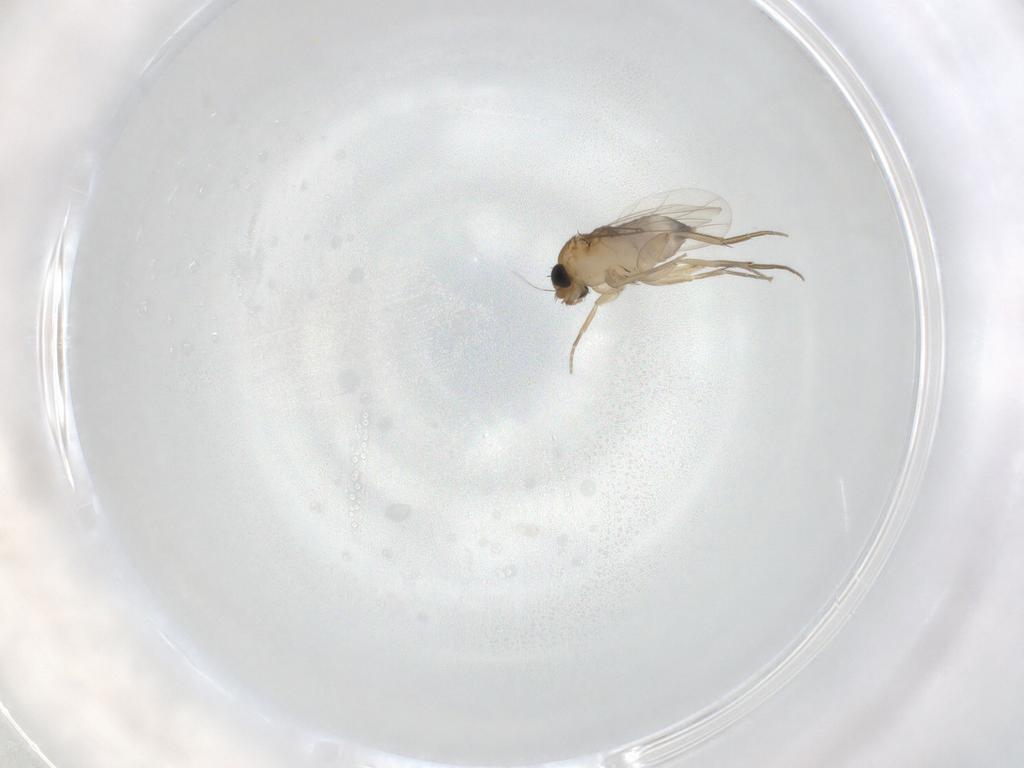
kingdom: Animalia
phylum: Arthropoda
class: Insecta
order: Diptera
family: Phoridae
